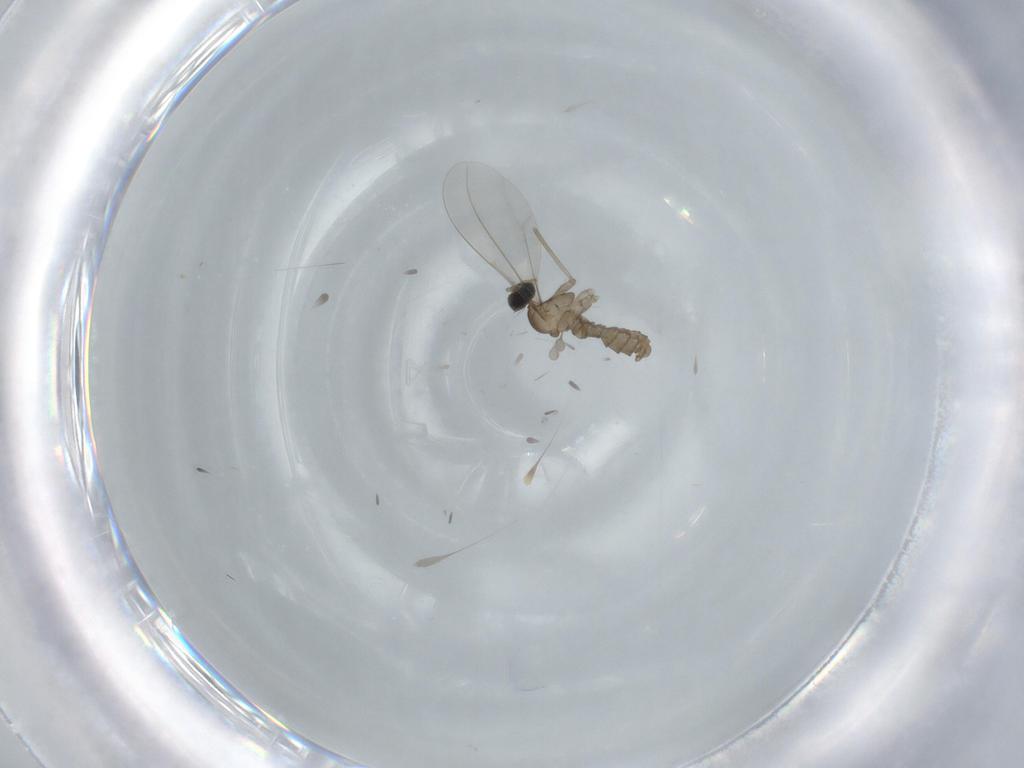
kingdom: Animalia
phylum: Arthropoda
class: Insecta
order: Diptera
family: Cecidomyiidae
